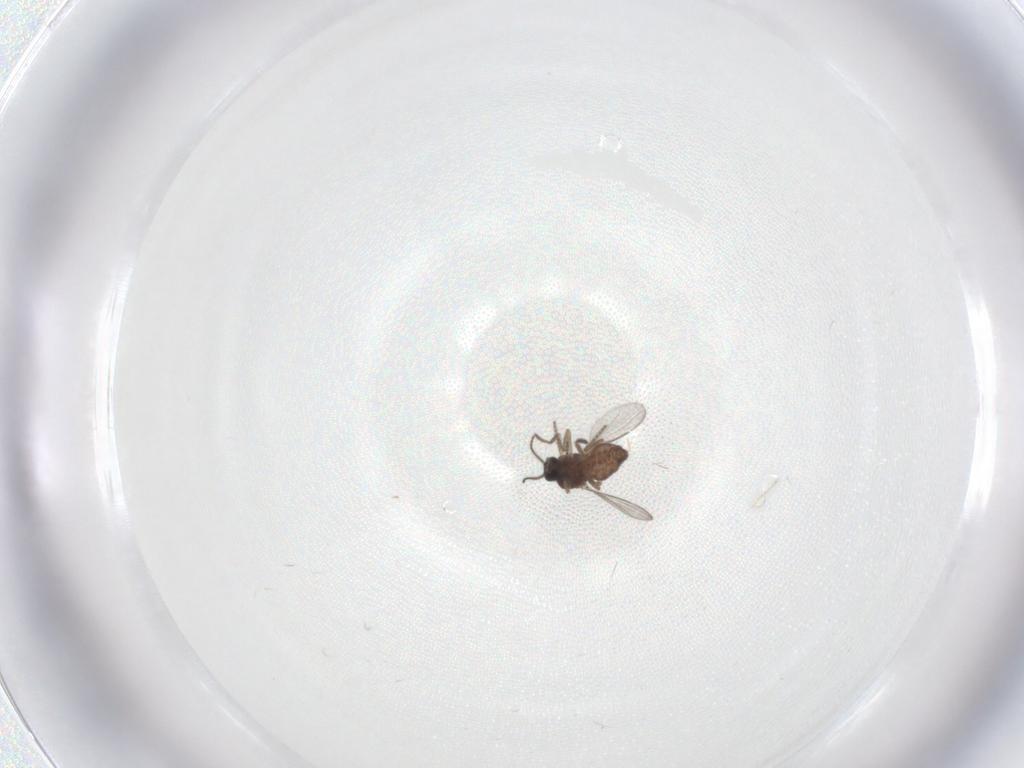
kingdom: Animalia
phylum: Arthropoda
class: Insecta
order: Diptera
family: Ceratopogonidae
